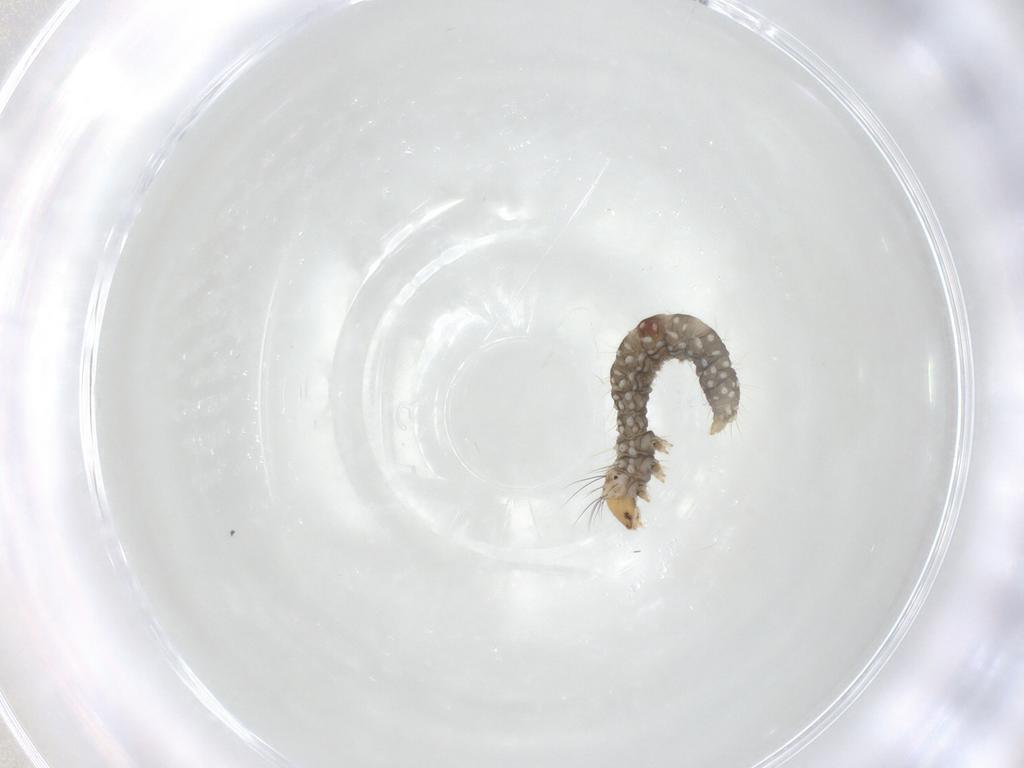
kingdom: Animalia
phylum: Arthropoda
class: Insecta
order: Lepidoptera
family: Bucculatricidae
